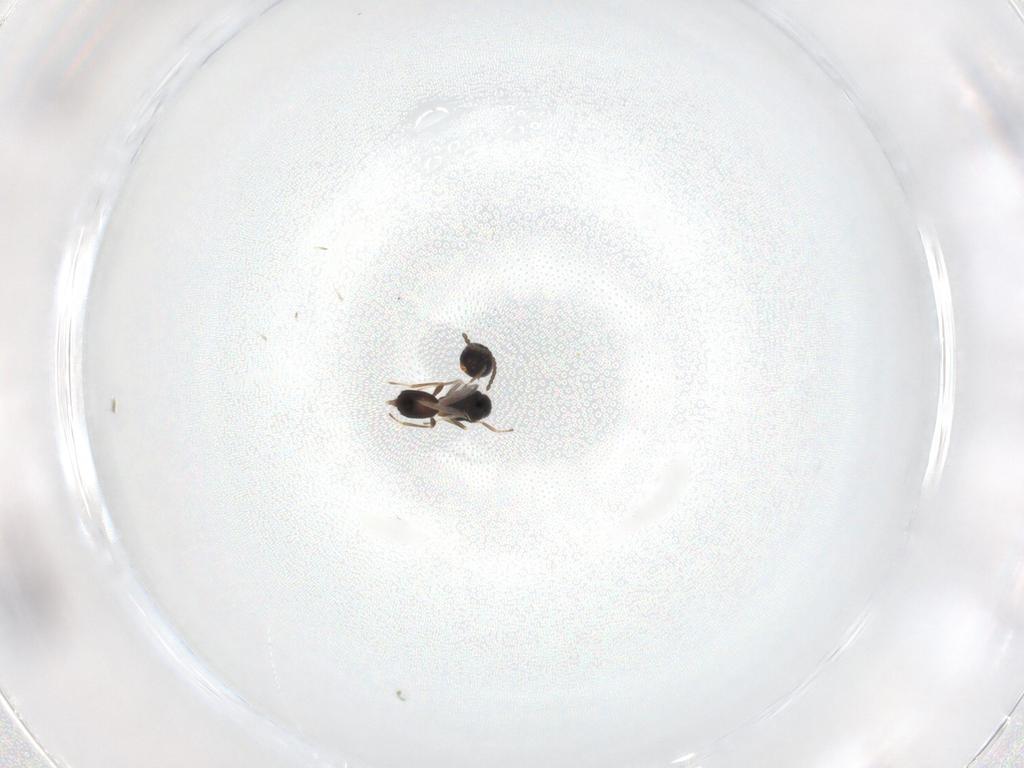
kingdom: Animalia
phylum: Arthropoda
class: Insecta
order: Hymenoptera
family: Eulophidae
